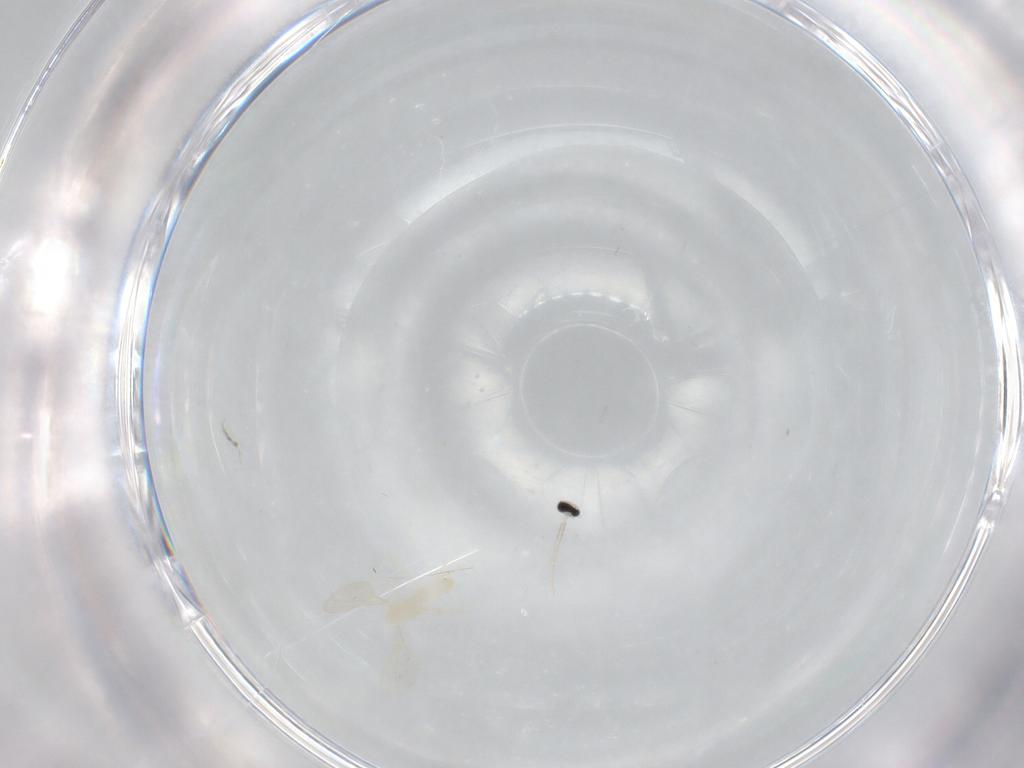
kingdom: Animalia
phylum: Arthropoda
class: Insecta
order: Diptera
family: Cecidomyiidae
